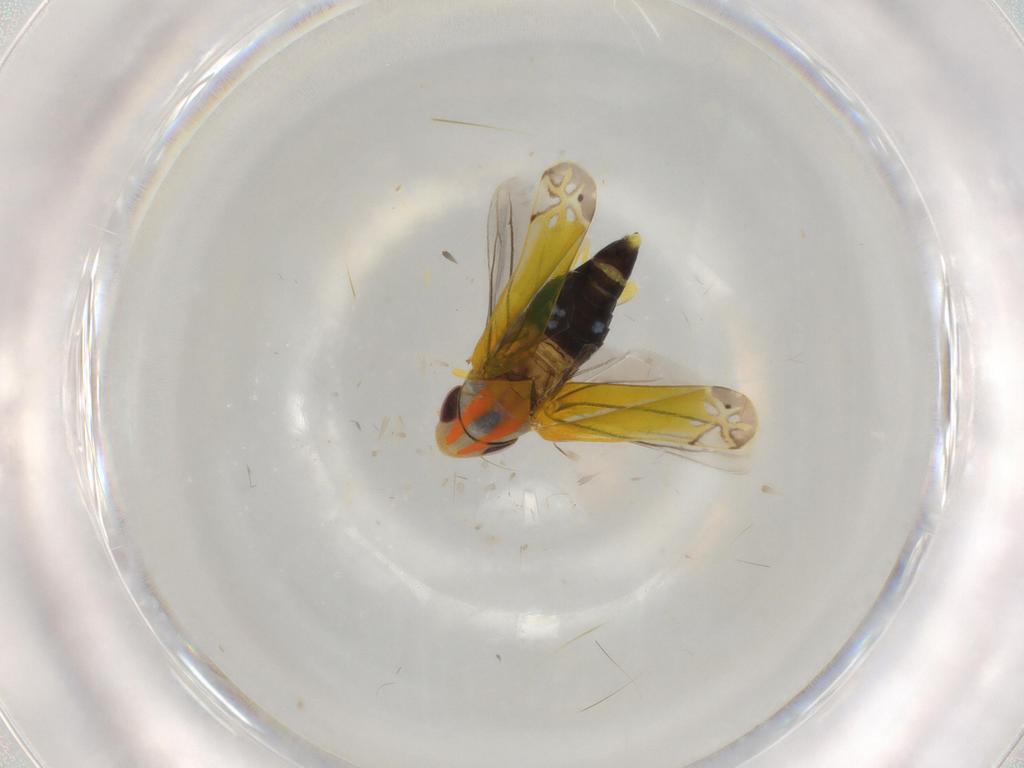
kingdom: Animalia
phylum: Arthropoda
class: Insecta
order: Hemiptera
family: Cicadellidae
